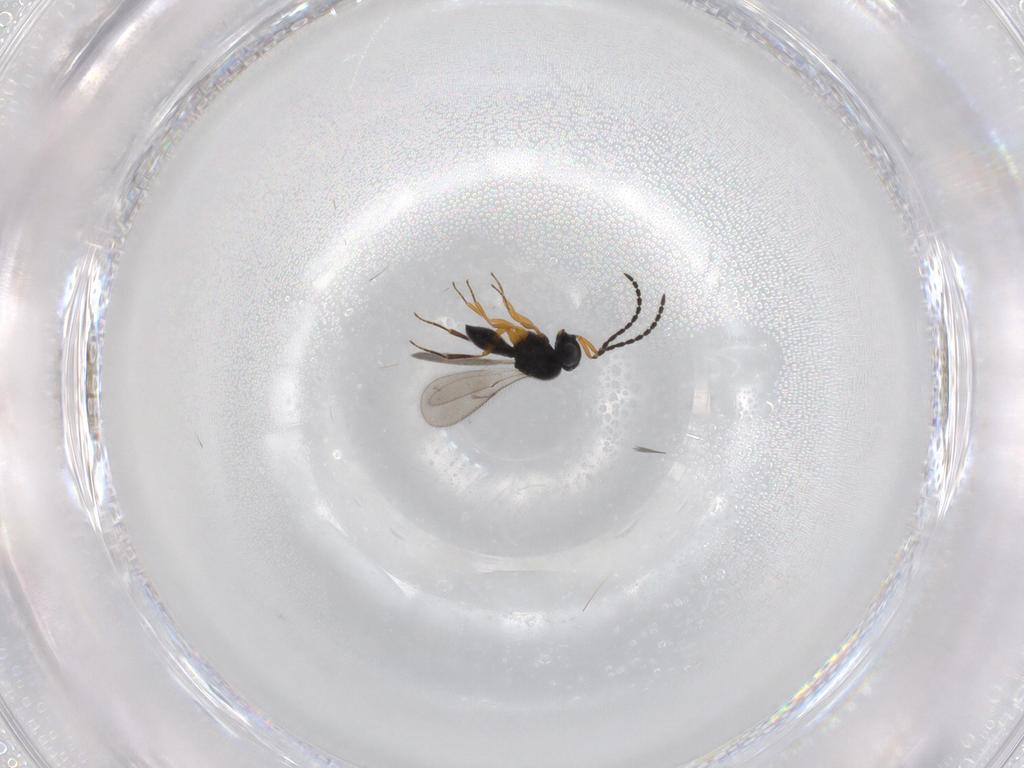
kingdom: Animalia
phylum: Arthropoda
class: Insecta
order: Hymenoptera
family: Scelionidae
